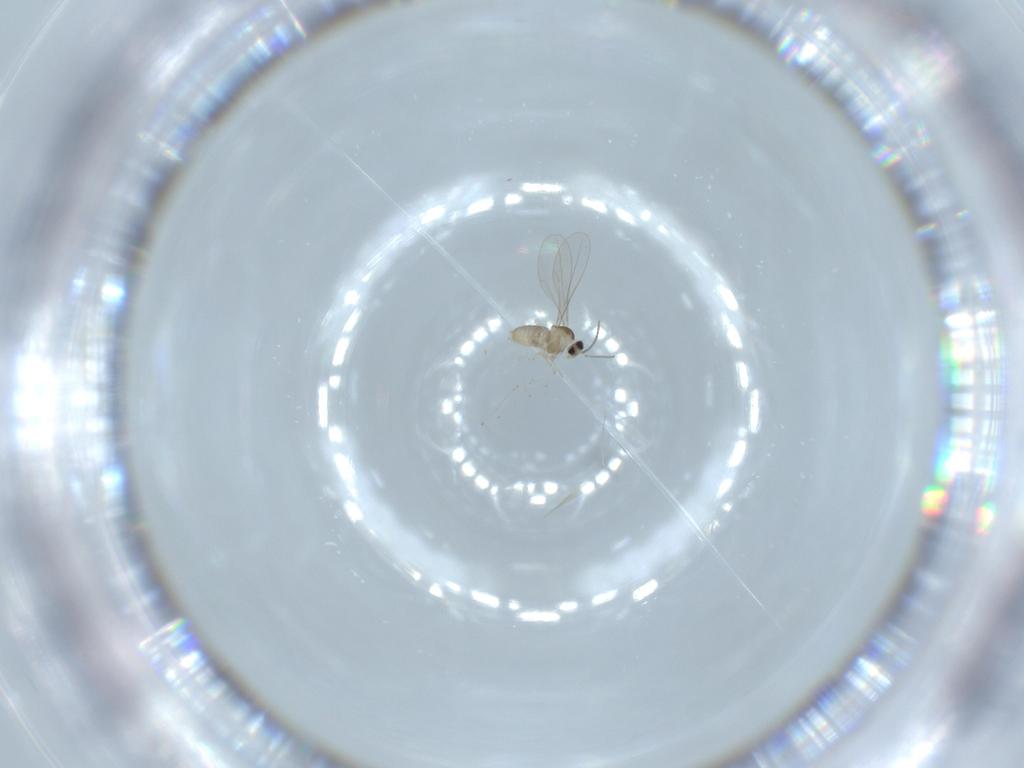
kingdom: Animalia
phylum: Arthropoda
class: Insecta
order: Diptera
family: Cecidomyiidae
